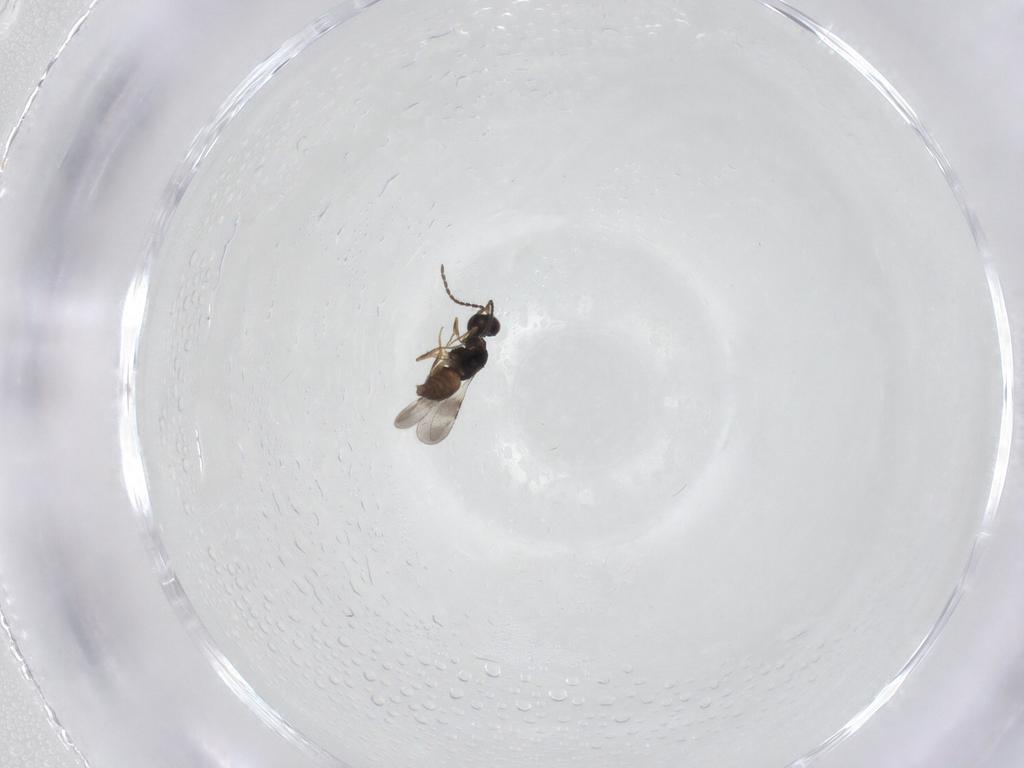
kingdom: Animalia
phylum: Arthropoda
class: Insecta
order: Hymenoptera
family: Ceraphronidae
